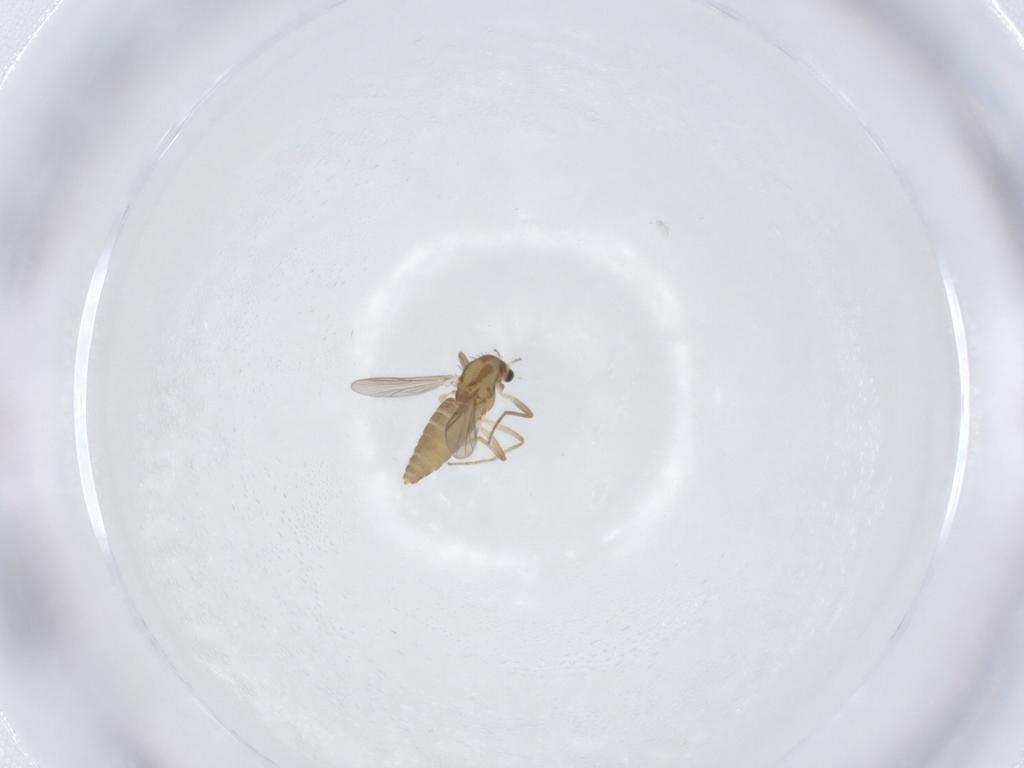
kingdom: Animalia
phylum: Arthropoda
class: Insecta
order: Diptera
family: Chironomidae
